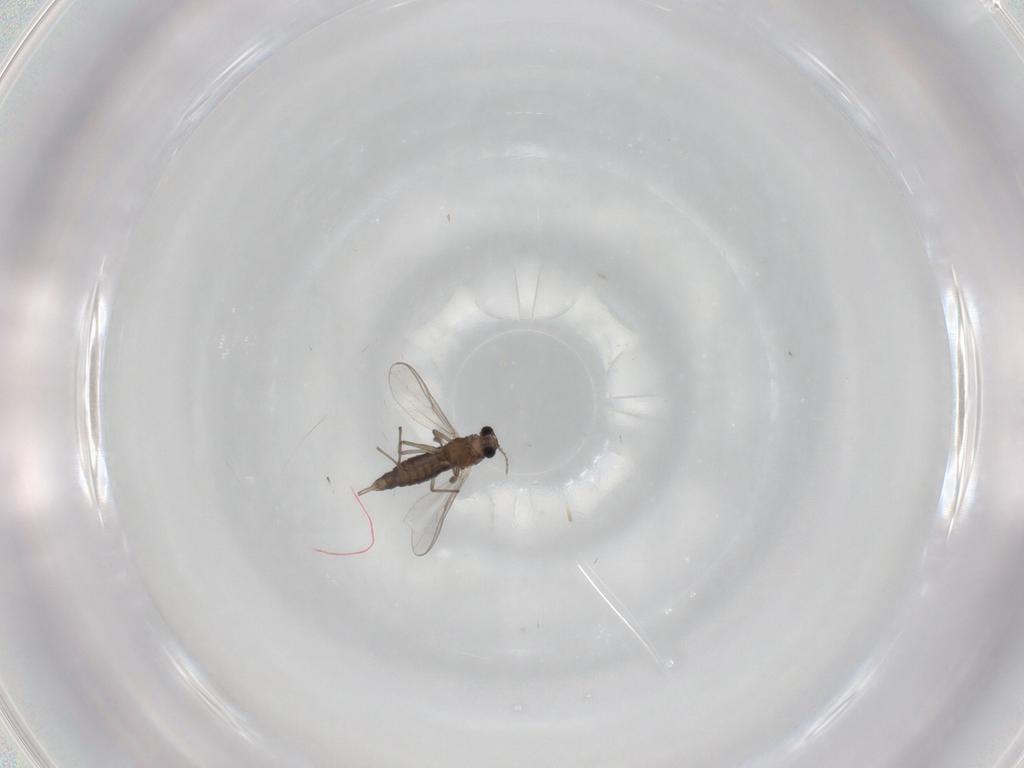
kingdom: Animalia
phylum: Arthropoda
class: Insecta
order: Diptera
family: Chironomidae
